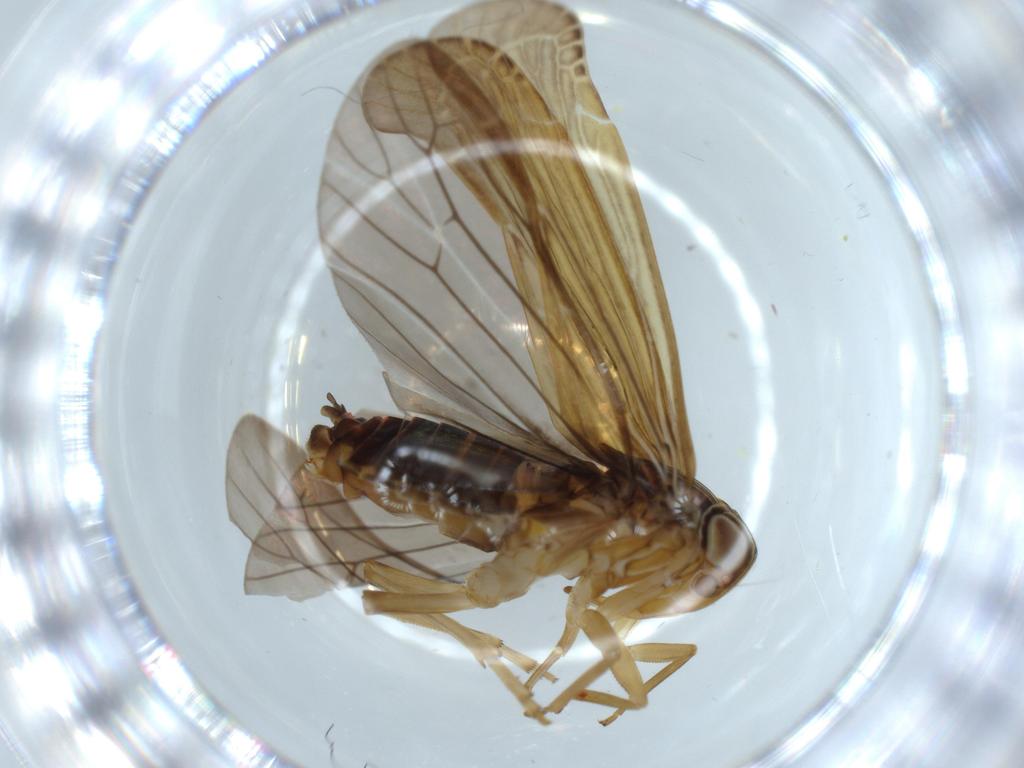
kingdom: Animalia
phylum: Arthropoda
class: Insecta
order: Hemiptera
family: Achilidae
